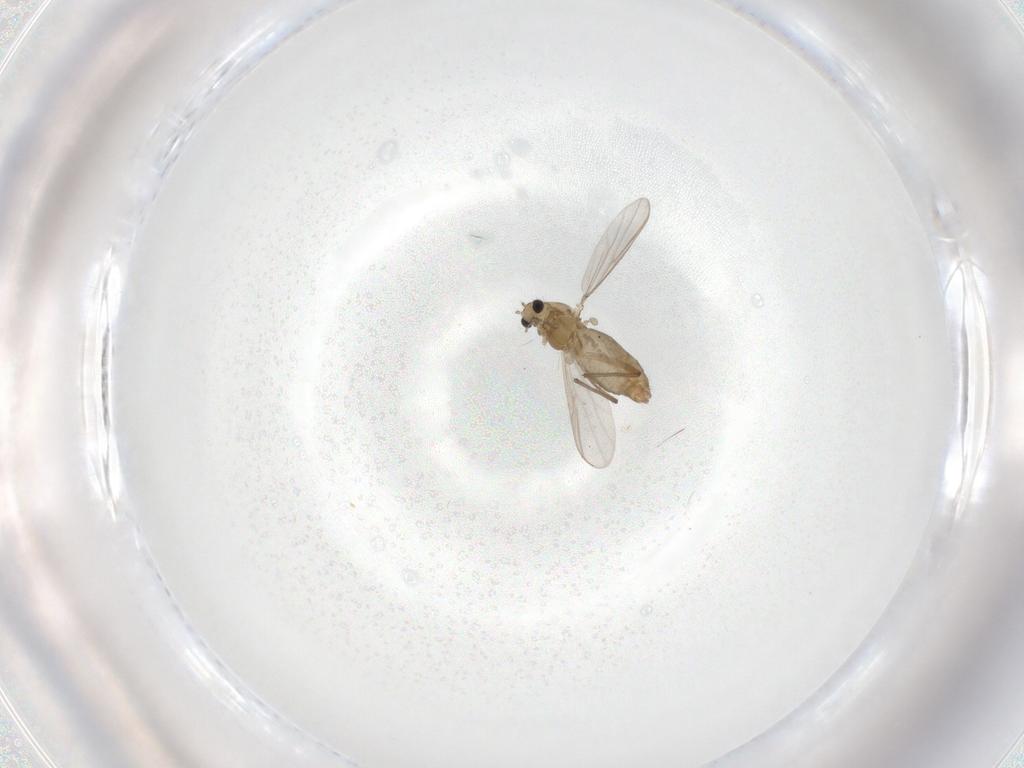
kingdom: Animalia
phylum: Arthropoda
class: Insecta
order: Diptera
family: Chironomidae
